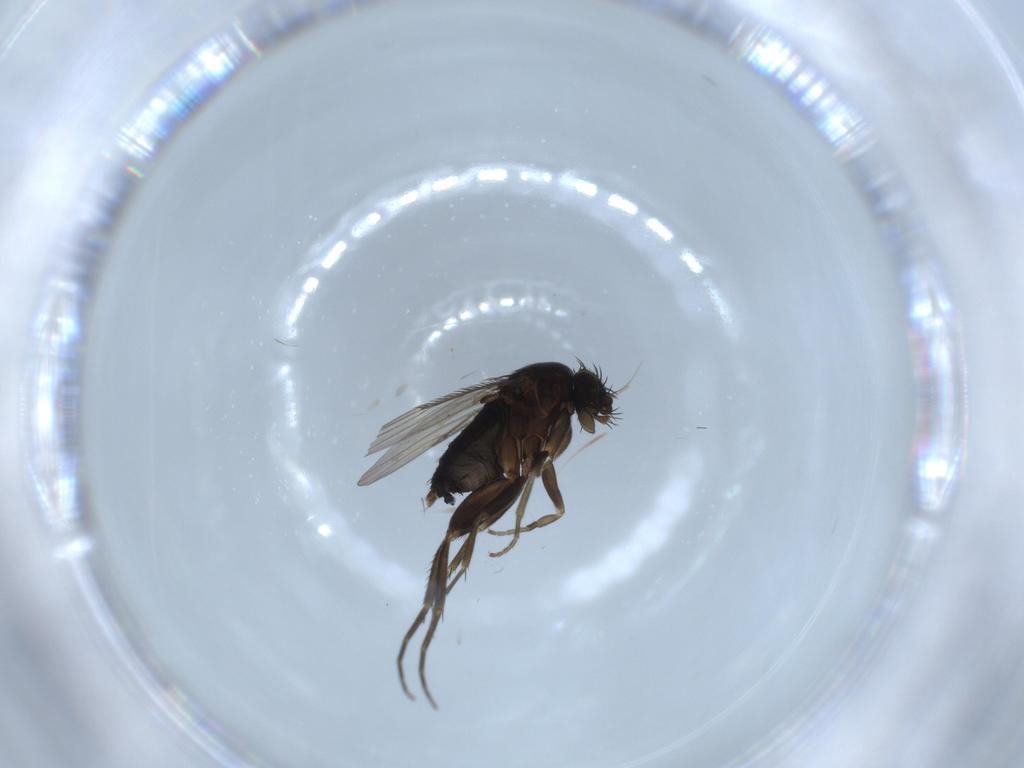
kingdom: Animalia
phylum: Arthropoda
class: Insecta
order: Diptera
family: Phoridae
